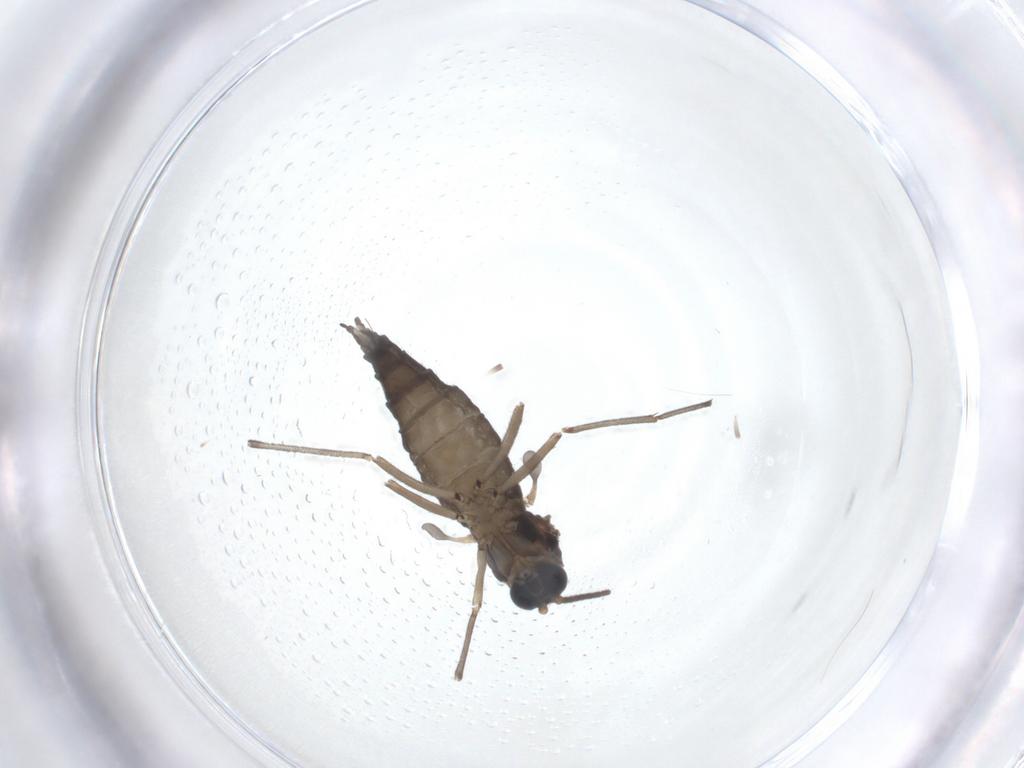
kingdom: Animalia
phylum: Arthropoda
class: Insecta
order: Diptera
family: Sciaridae
